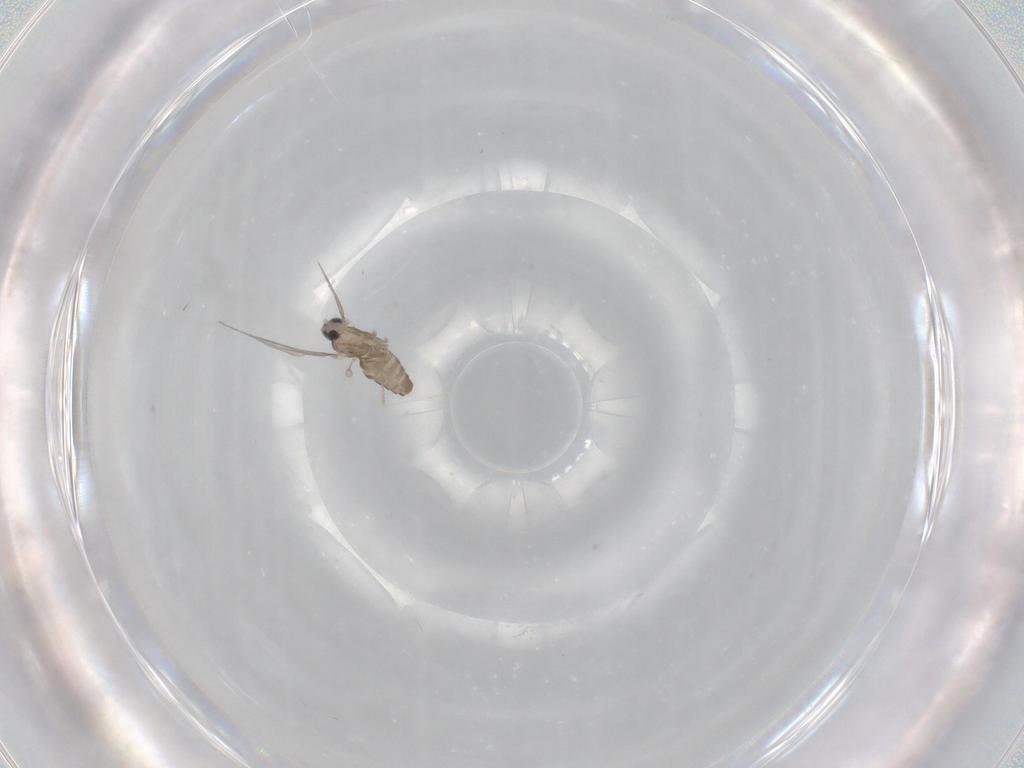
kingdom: Animalia
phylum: Arthropoda
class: Insecta
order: Diptera
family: Cecidomyiidae
